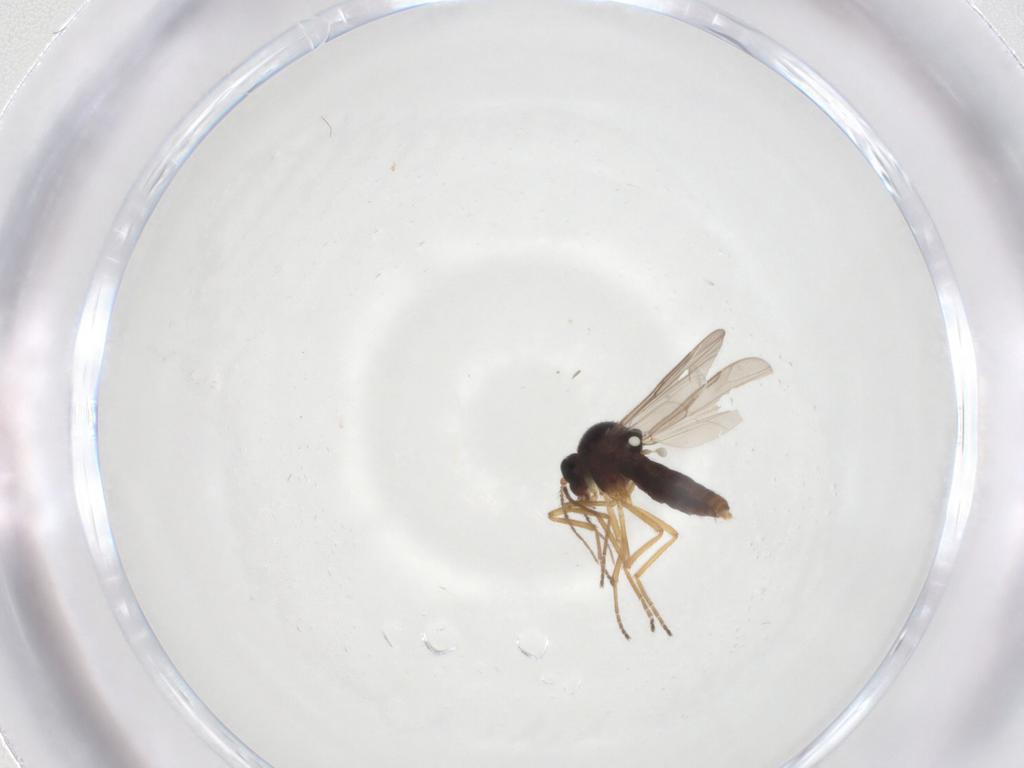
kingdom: Animalia
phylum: Arthropoda
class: Insecta
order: Diptera
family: Ceratopogonidae
